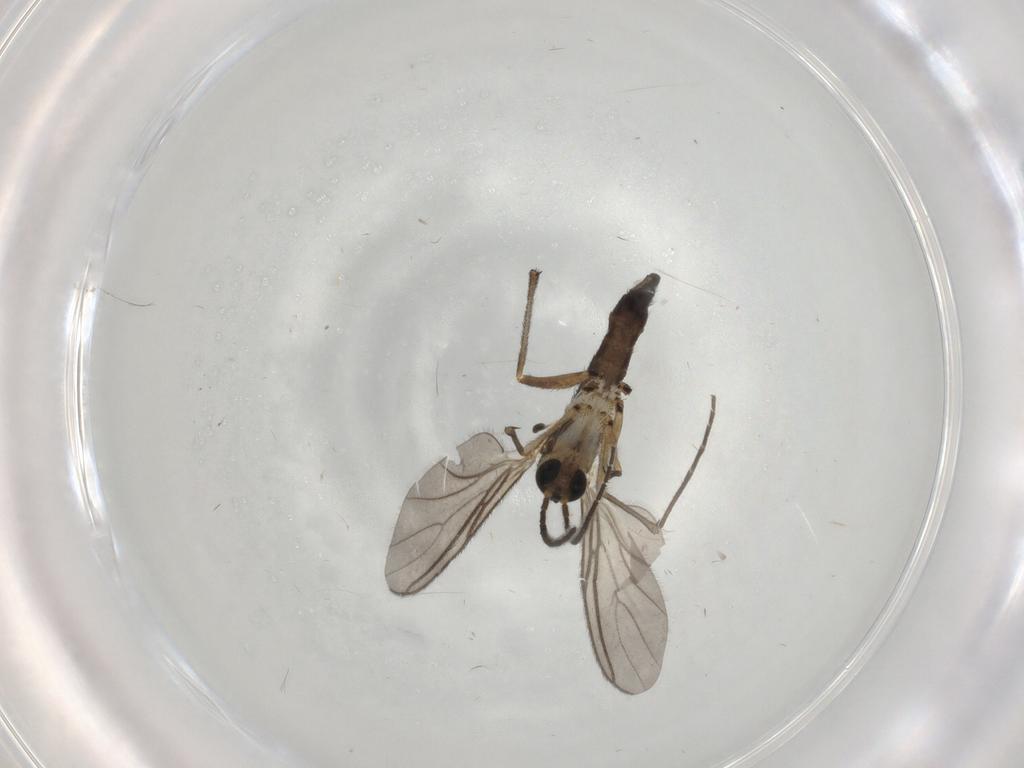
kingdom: Animalia
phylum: Arthropoda
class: Insecta
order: Diptera
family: Sciaridae
